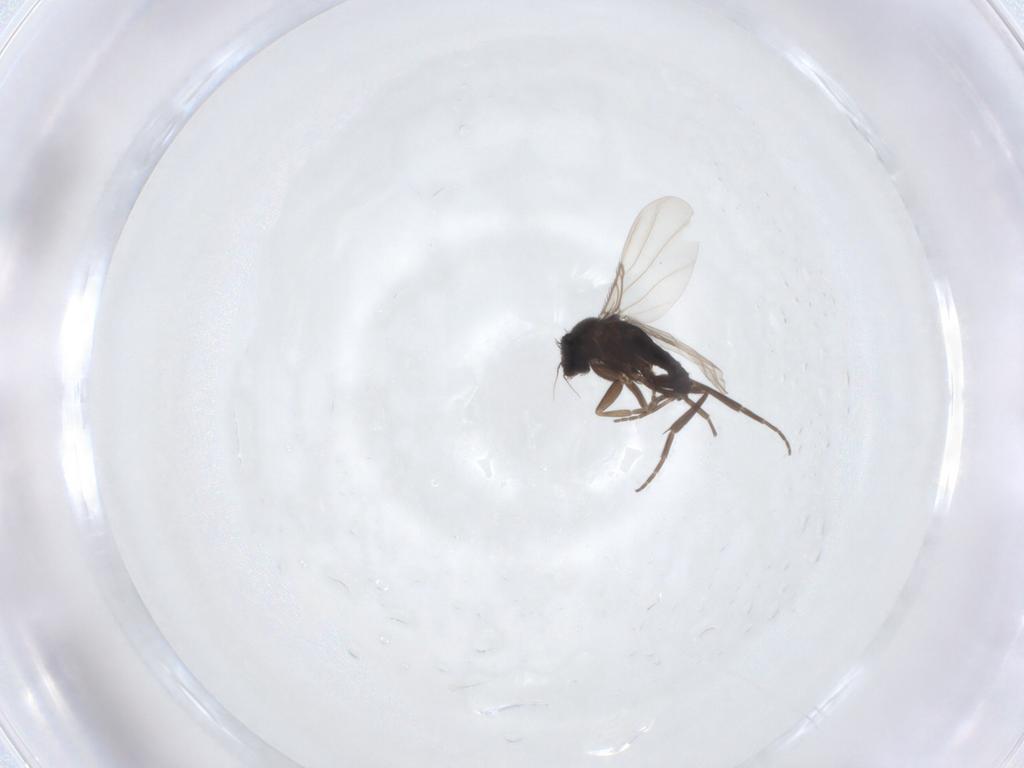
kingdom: Animalia
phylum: Arthropoda
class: Insecta
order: Diptera
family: Phoridae
